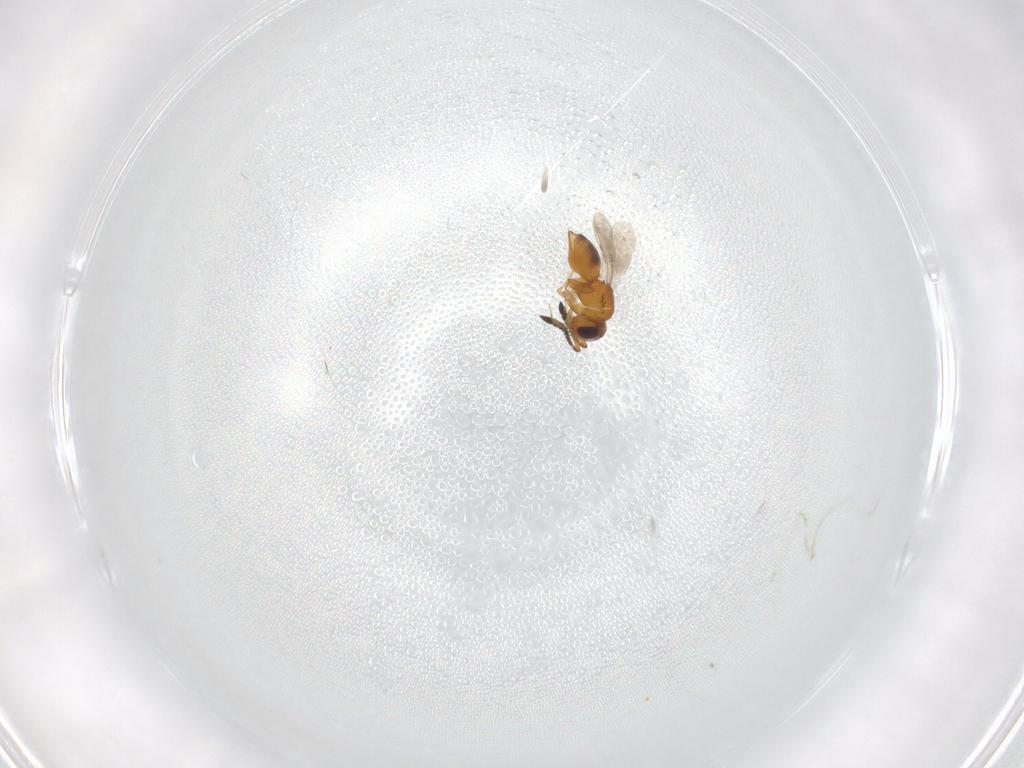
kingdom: Animalia
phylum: Arthropoda
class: Insecta
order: Hymenoptera
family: Ceraphronidae
